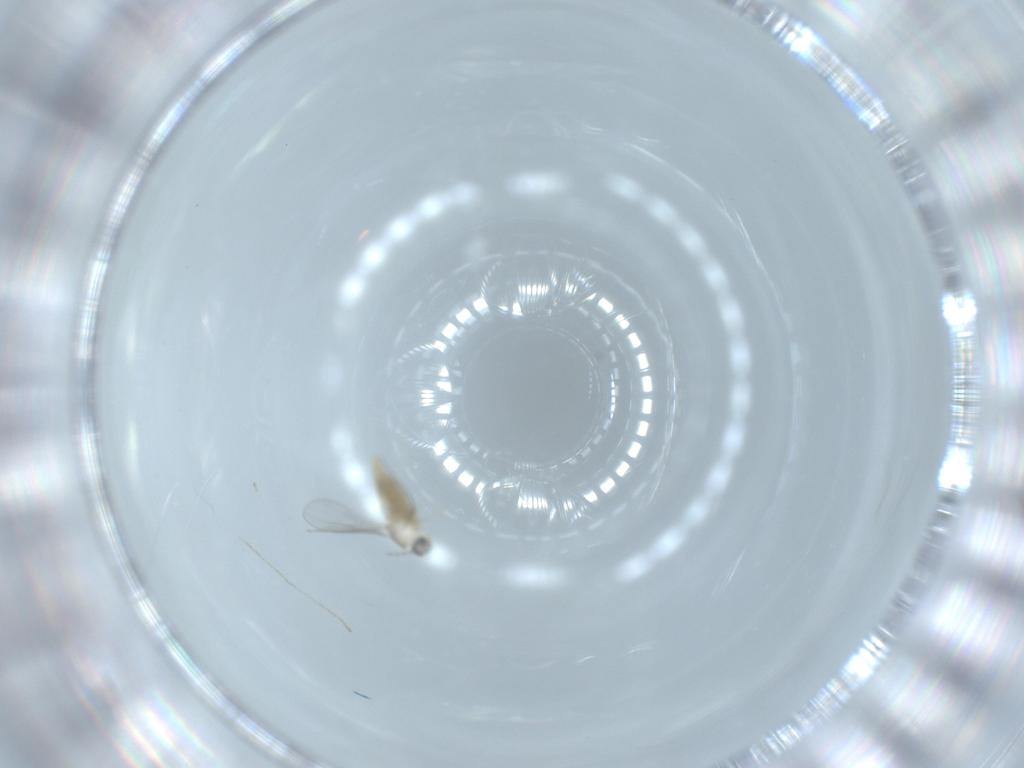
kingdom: Animalia
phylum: Arthropoda
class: Insecta
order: Diptera
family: Cecidomyiidae
